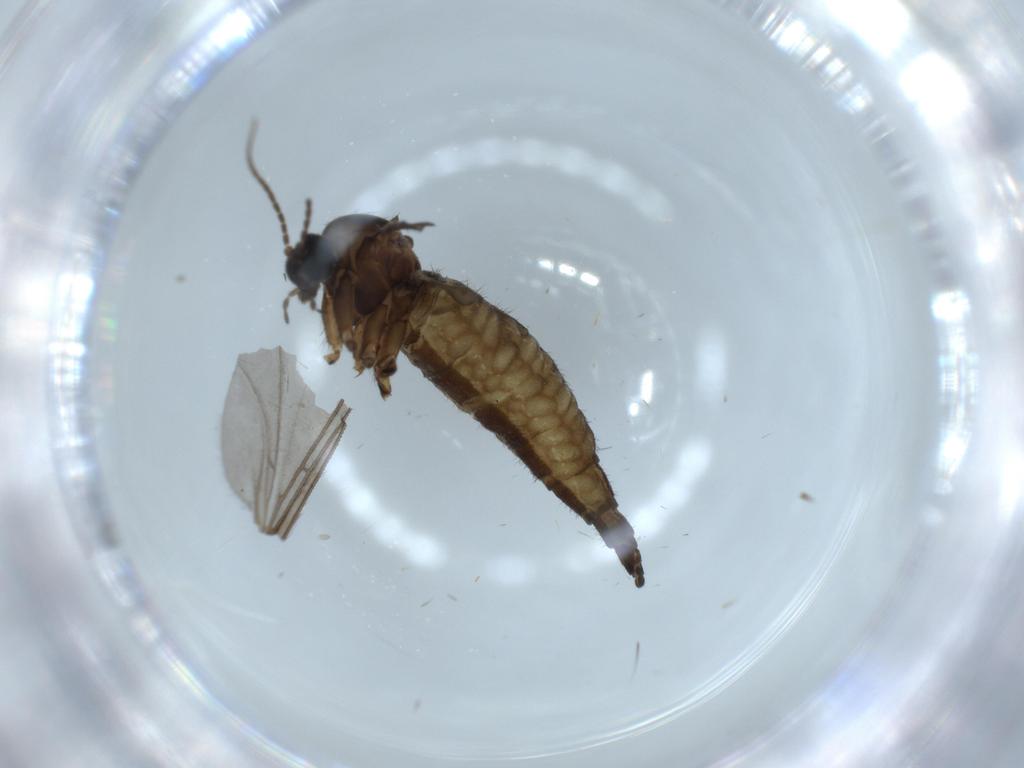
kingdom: Animalia
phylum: Arthropoda
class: Insecta
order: Diptera
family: Sciaridae
